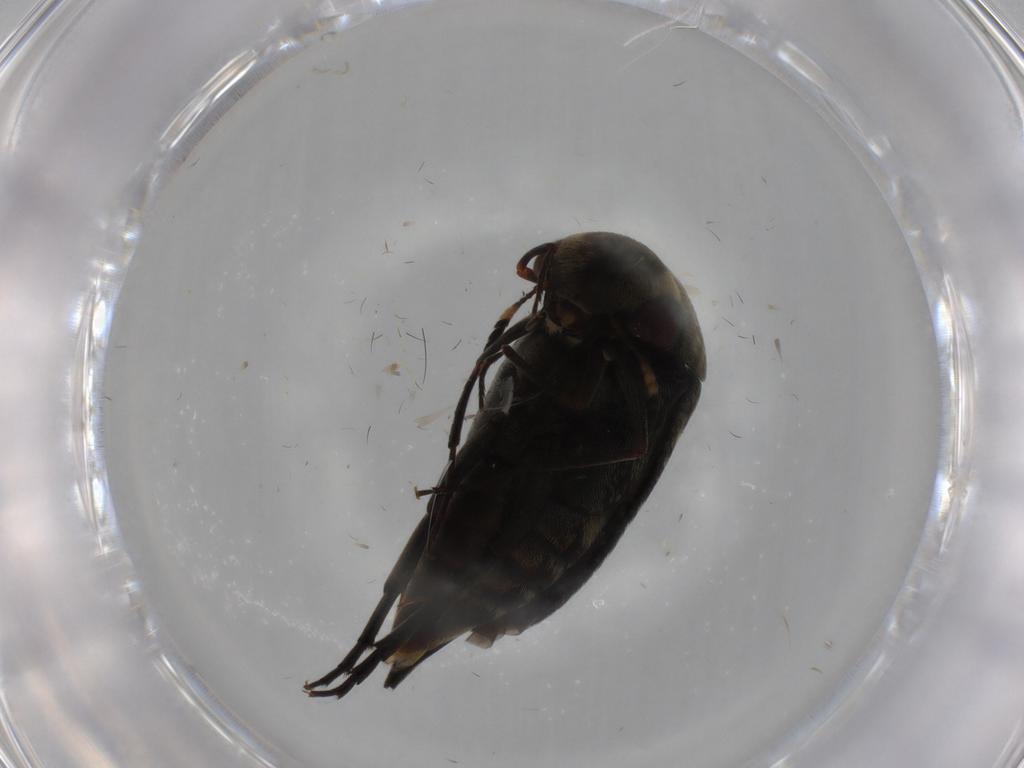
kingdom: Animalia
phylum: Arthropoda
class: Insecta
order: Coleoptera
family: Mordellidae
